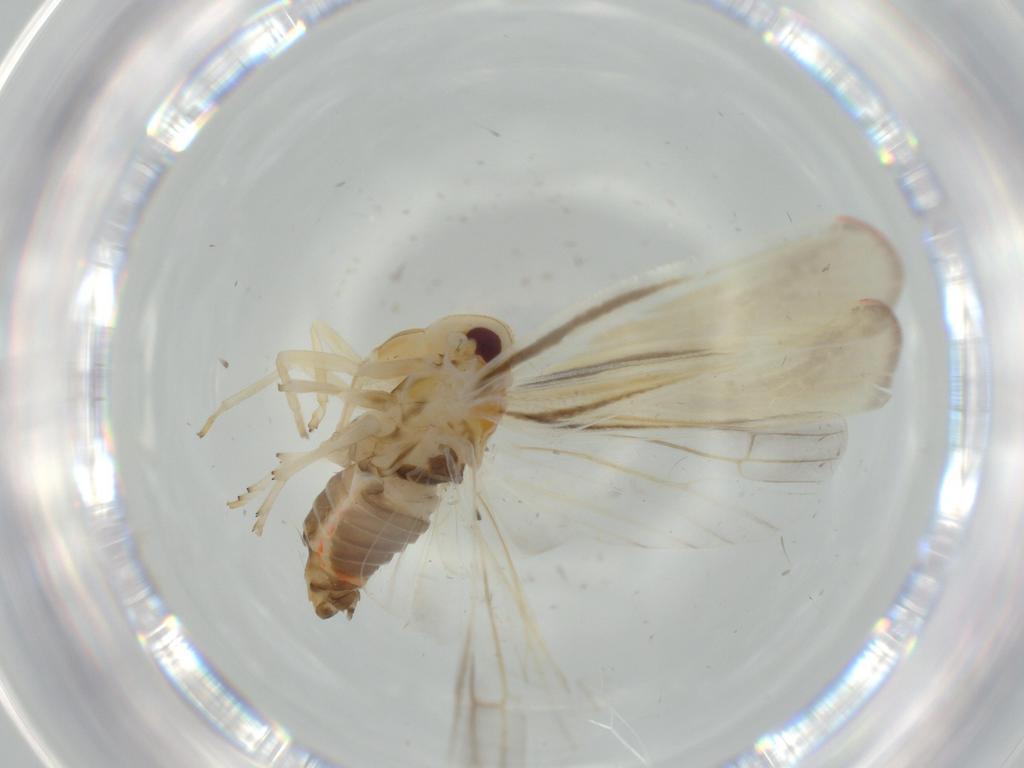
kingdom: Animalia
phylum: Arthropoda
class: Insecta
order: Hemiptera
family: Derbidae
